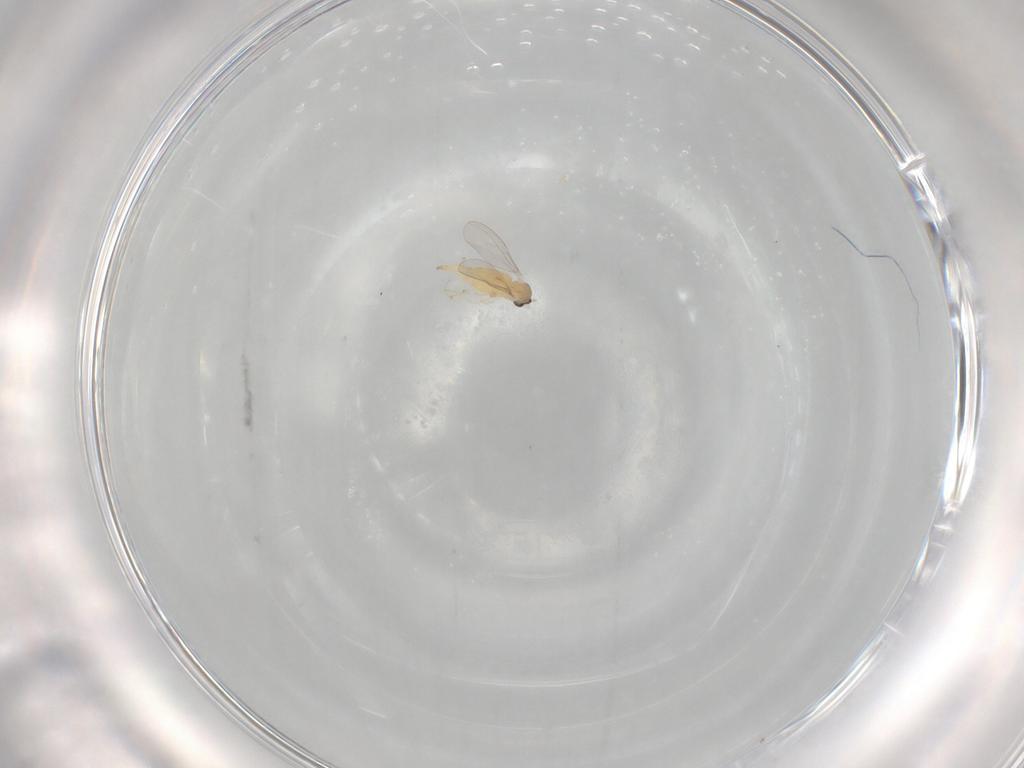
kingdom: Animalia
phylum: Arthropoda
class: Insecta
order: Diptera
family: Cecidomyiidae
